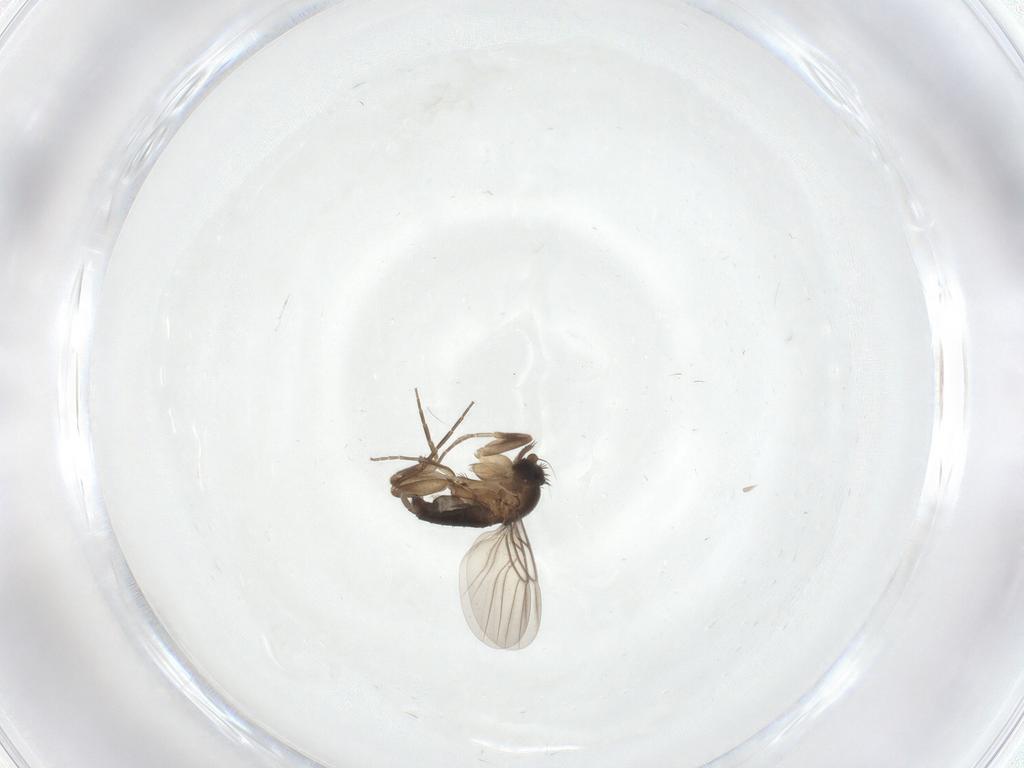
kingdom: Animalia
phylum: Arthropoda
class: Insecta
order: Diptera
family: Phoridae
